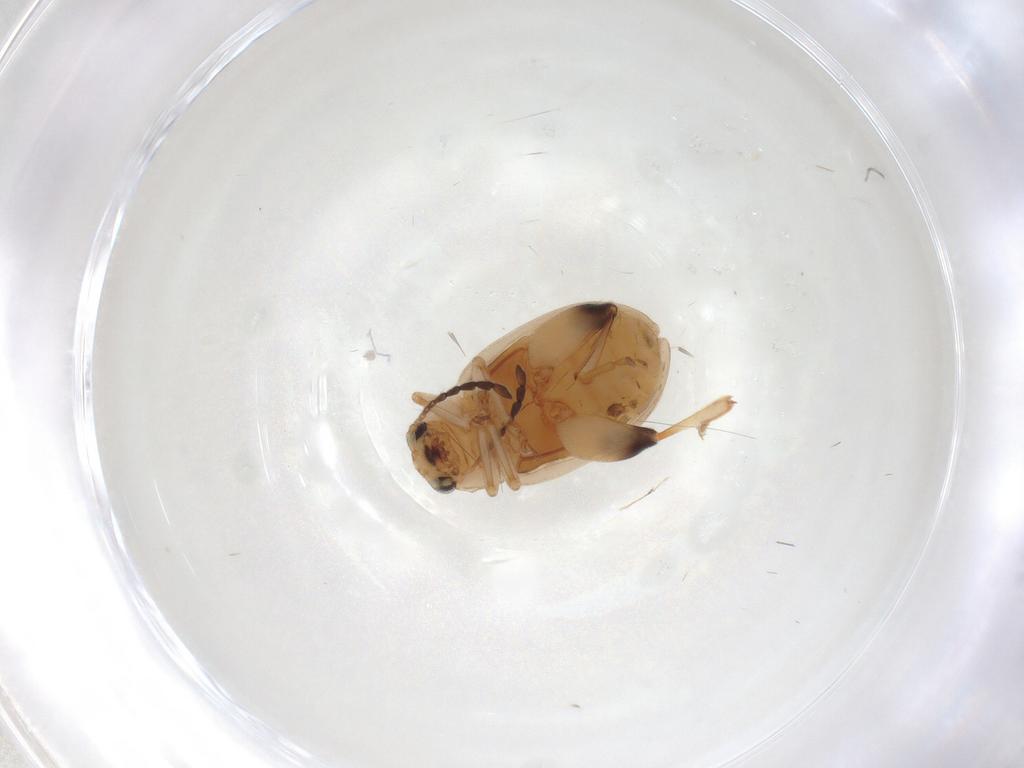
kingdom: Animalia
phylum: Arthropoda
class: Insecta
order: Coleoptera
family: Chrysomelidae
